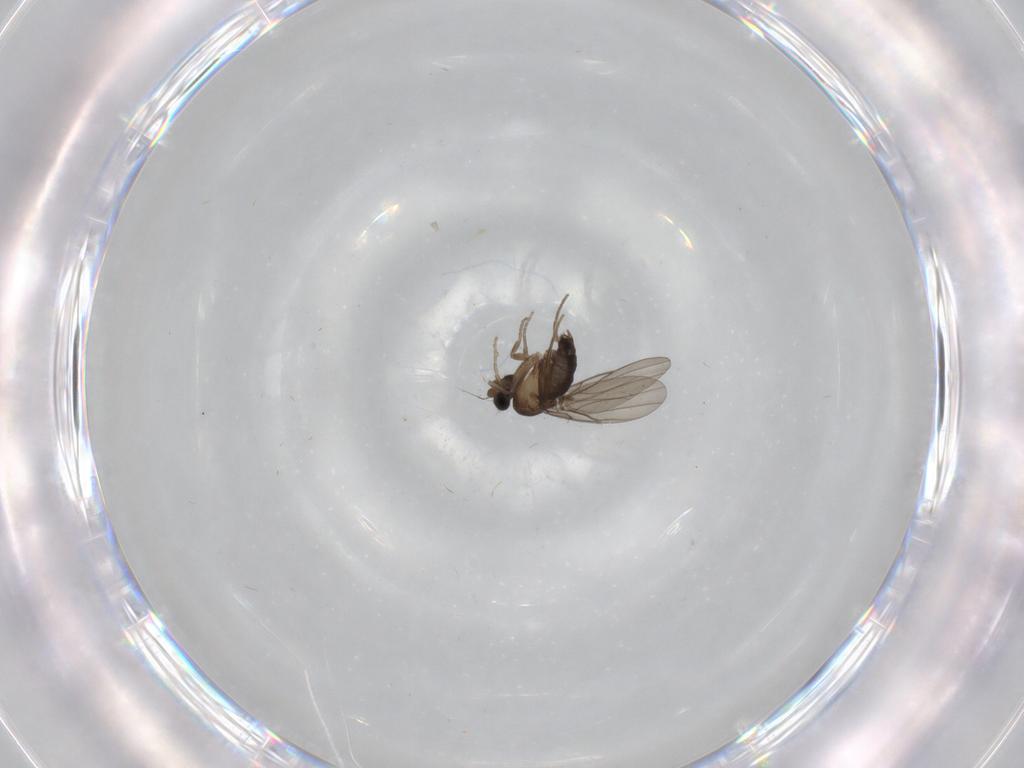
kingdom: Animalia
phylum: Arthropoda
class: Insecta
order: Diptera
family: Phoridae
